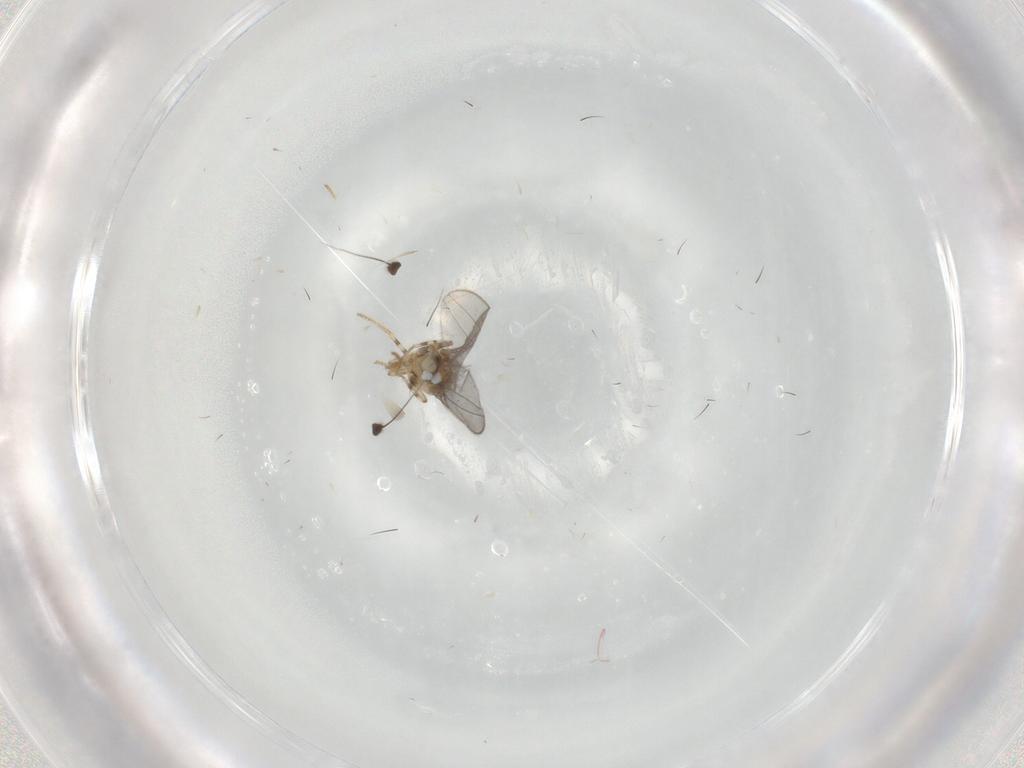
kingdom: Animalia
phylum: Arthropoda
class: Insecta
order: Diptera
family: Asteiidae
